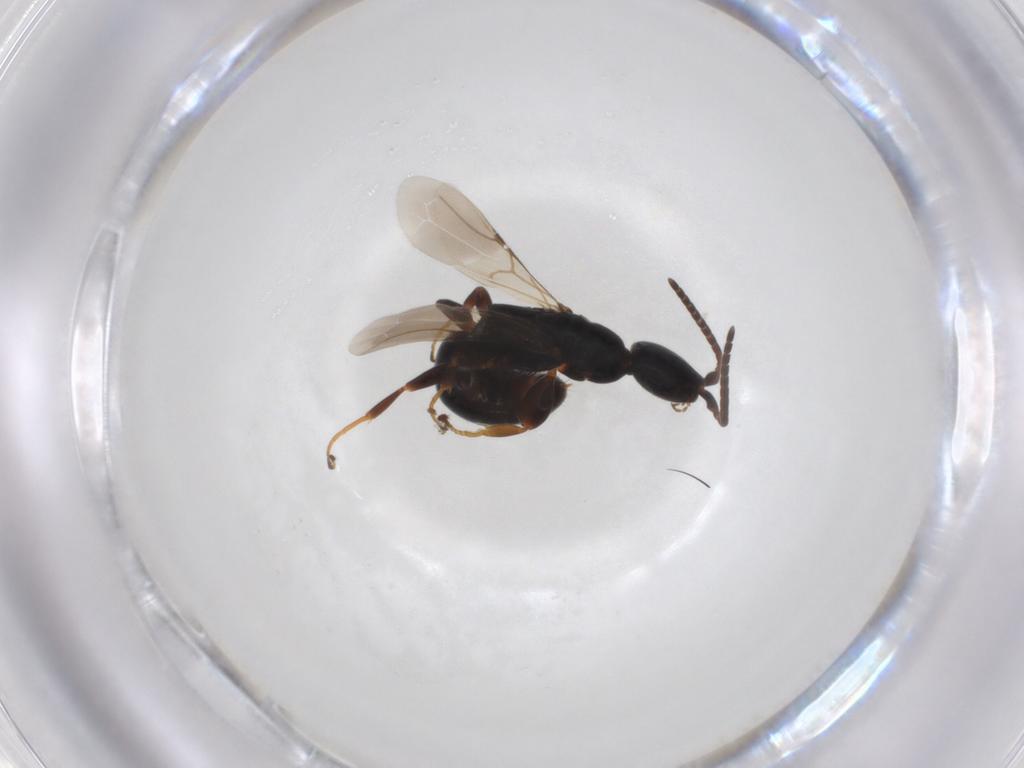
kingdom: Animalia
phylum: Arthropoda
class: Insecta
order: Hymenoptera
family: Bethylidae
